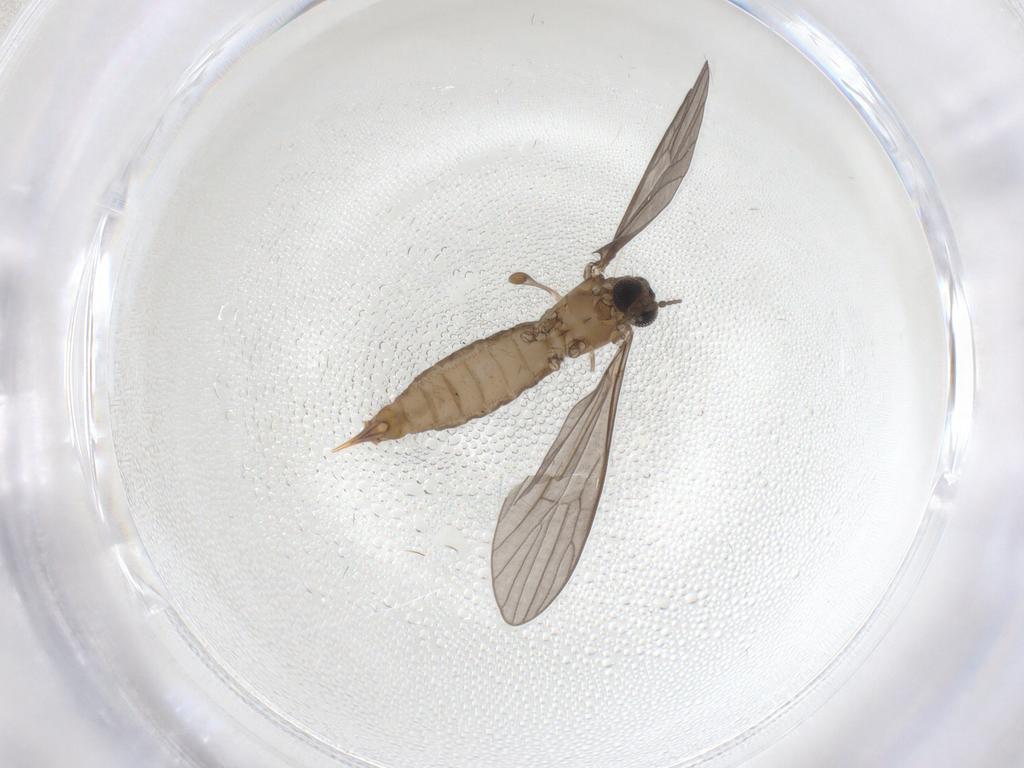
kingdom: Animalia
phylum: Arthropoda
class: Insecta
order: Diptera
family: Limoniidae
